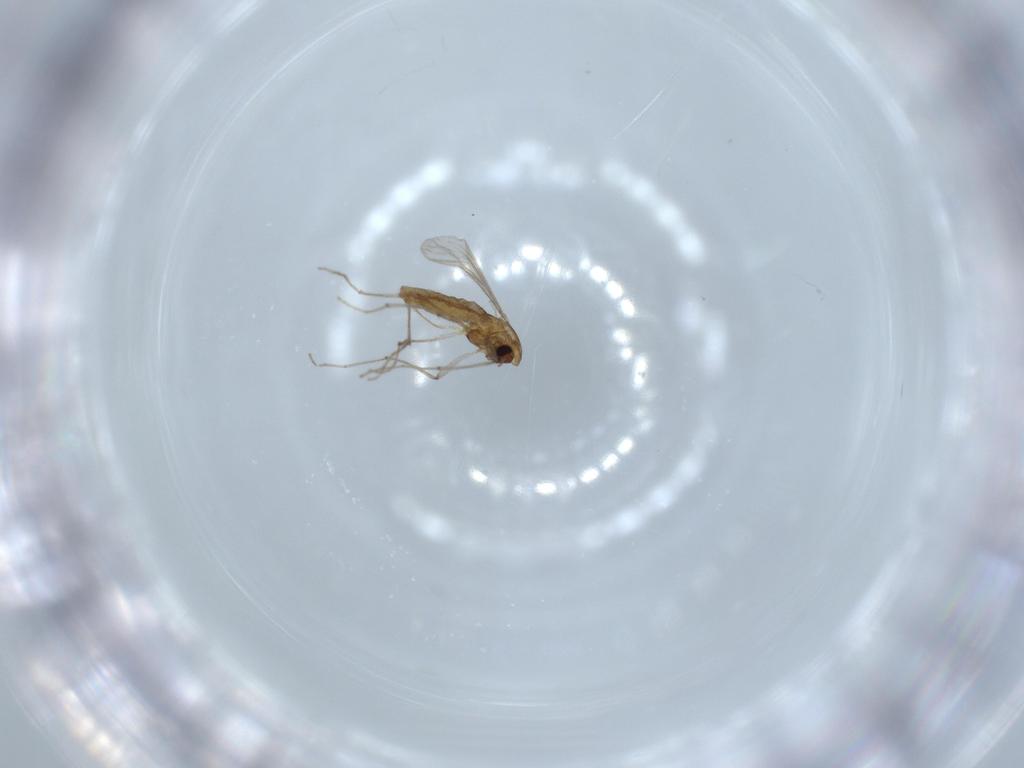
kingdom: Animalia
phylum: Arthropoda
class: Insecta
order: Diptera
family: Chironomidae
